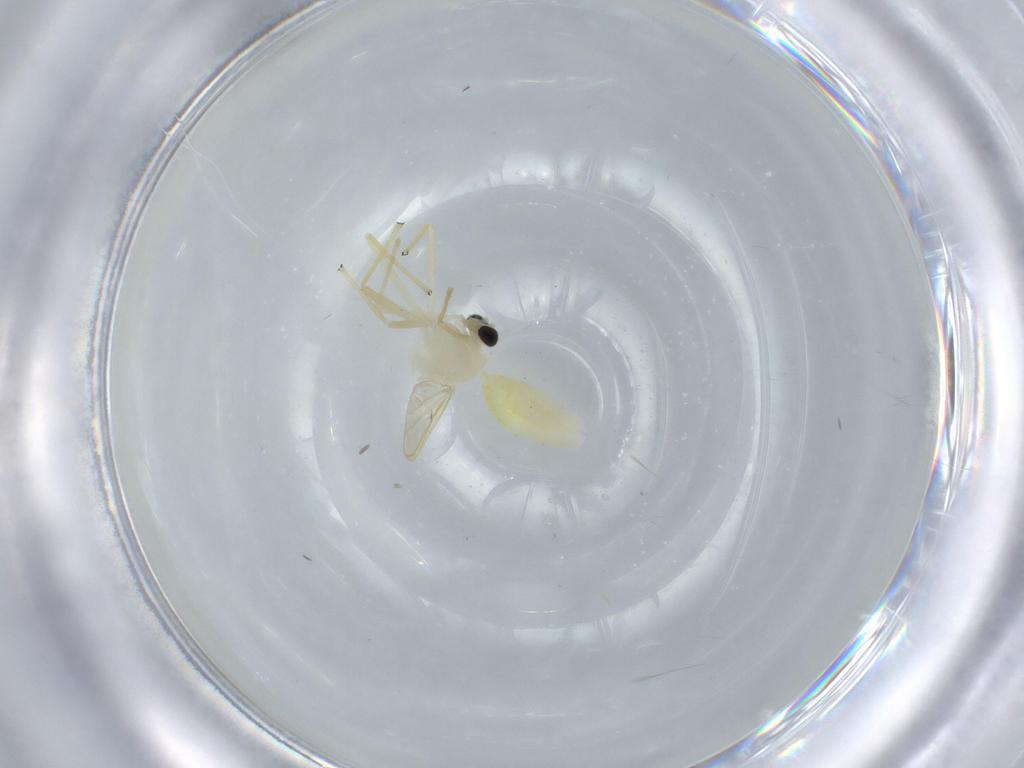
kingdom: Animalia
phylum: Arthropoda
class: Insecta
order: Diptera
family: Chironomidae
